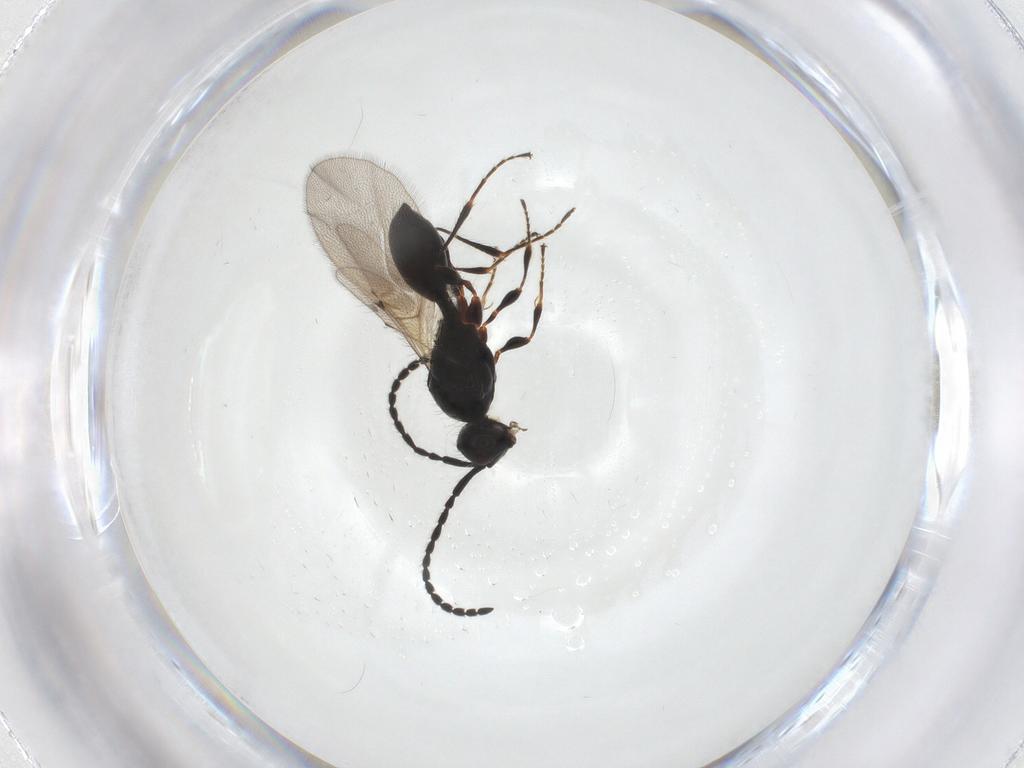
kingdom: Animalia
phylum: Arthropoda
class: Insecta
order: Hymenoptera
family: Diapriidae
